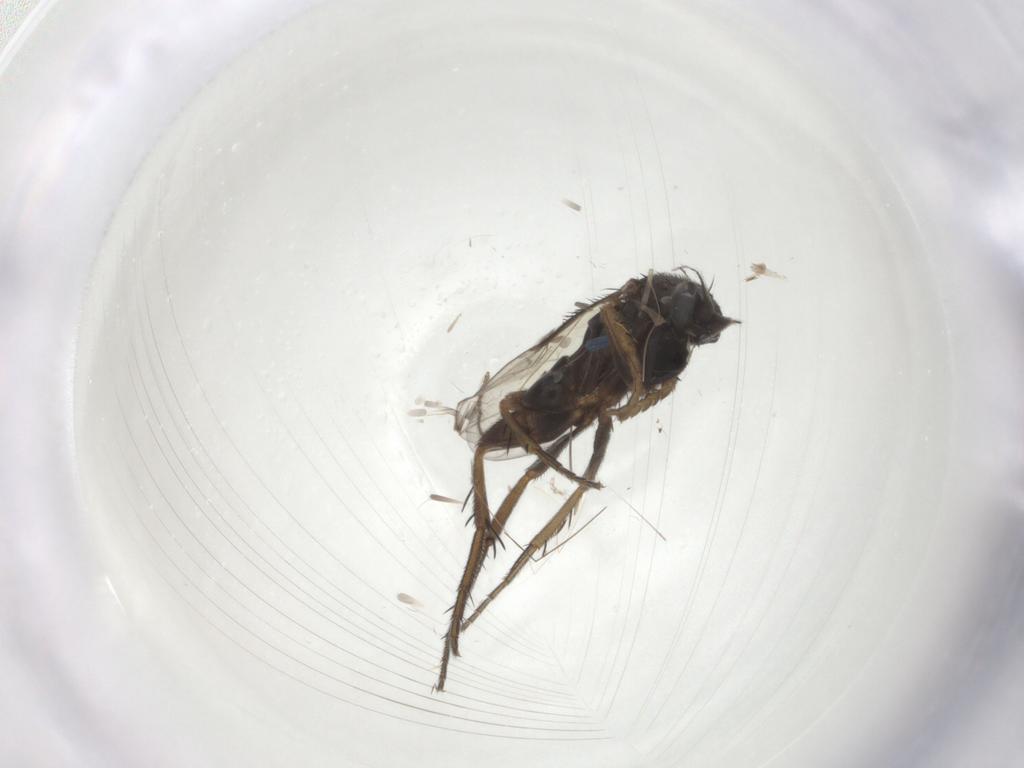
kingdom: Animalia
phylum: Arthropoda
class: Insecta
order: Diptera
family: Phoridae
